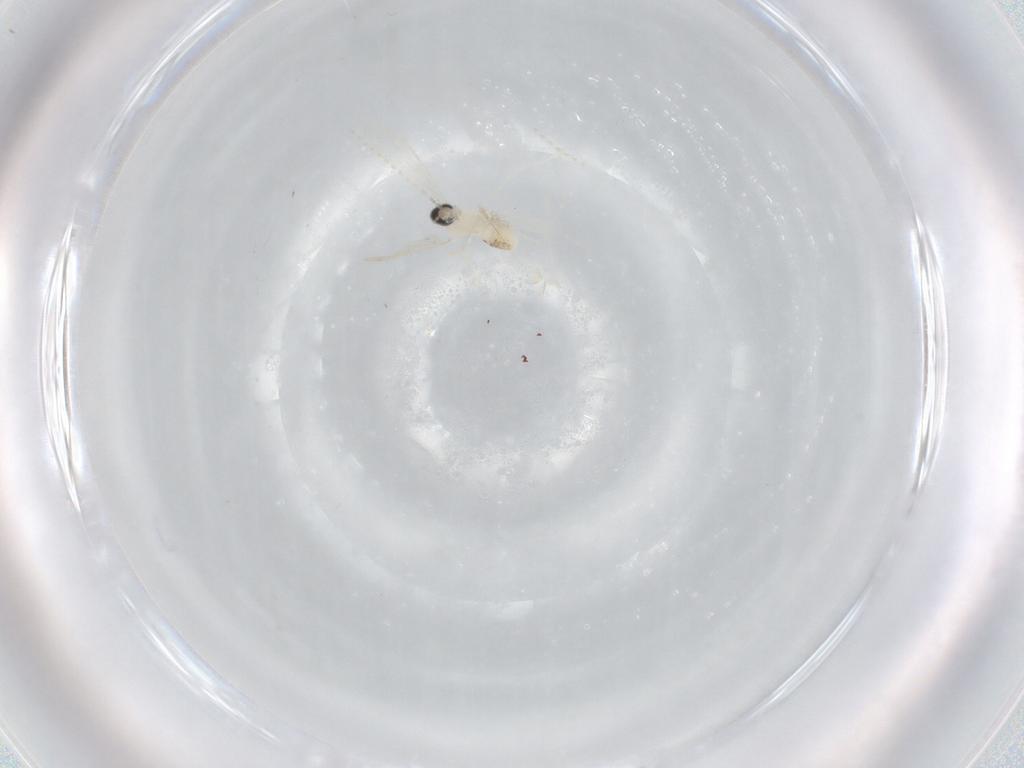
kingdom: Animalia
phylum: Arthropoda
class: Insecta
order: Diptera
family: Cecidomyiidae
